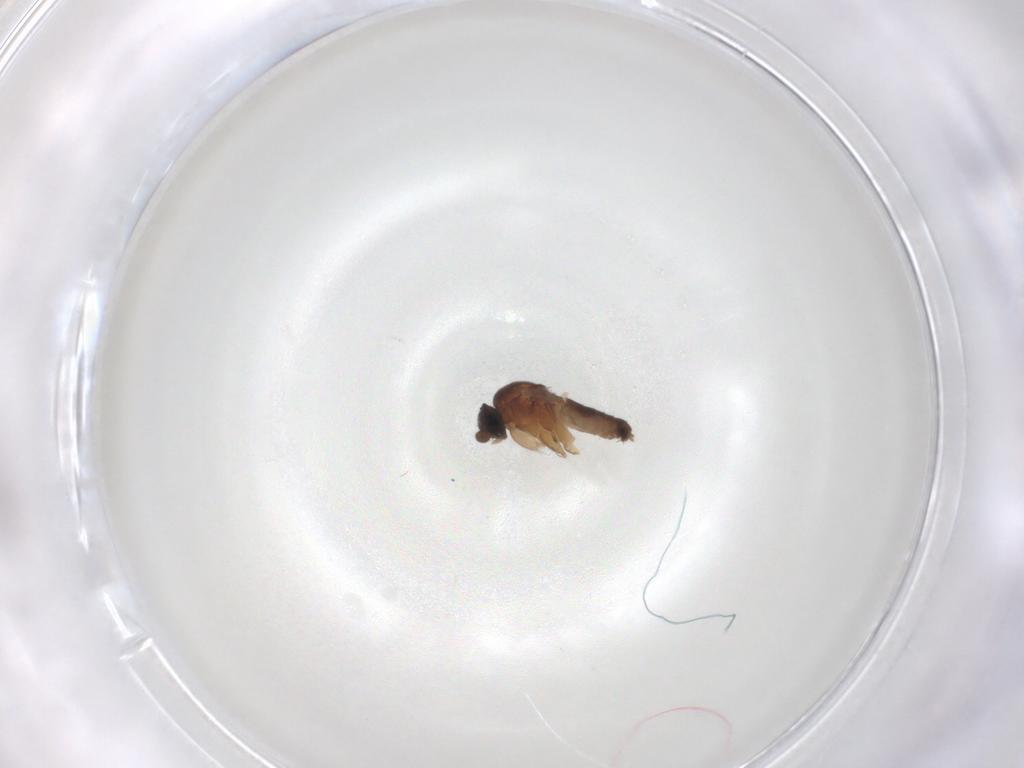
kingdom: Animalia
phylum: Arthropoda
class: Insecta
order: Diptera
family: Phoridae
